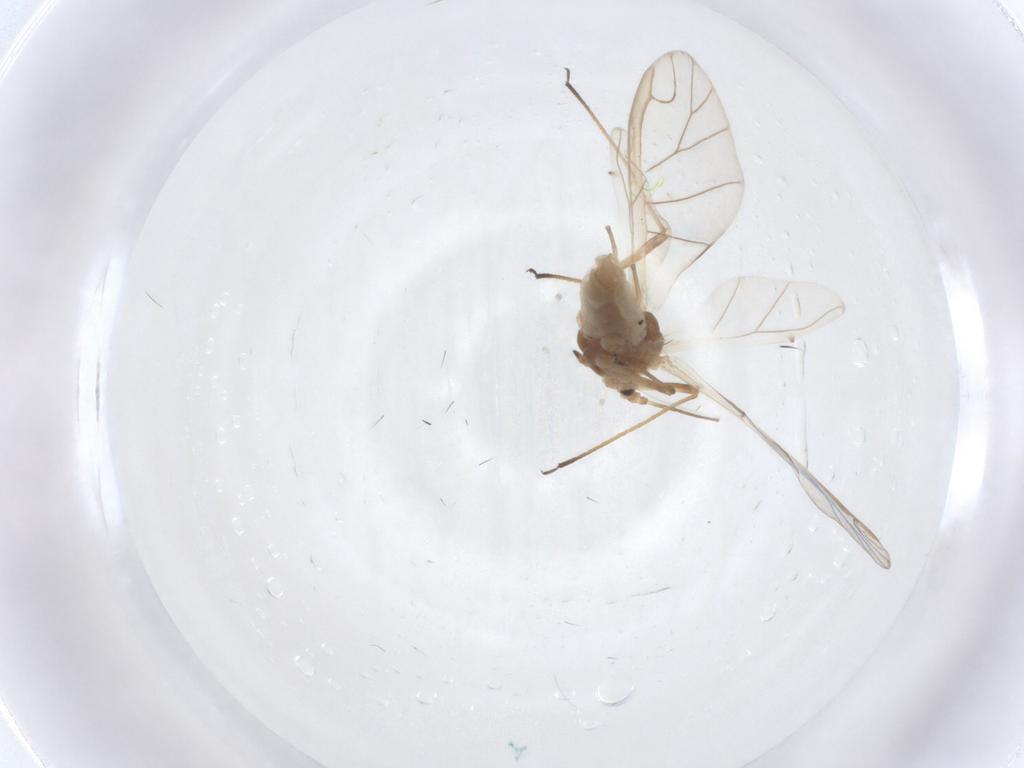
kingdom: Animalia
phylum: Arthropoda
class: Insecta
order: Hemiptera
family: Aphididae
